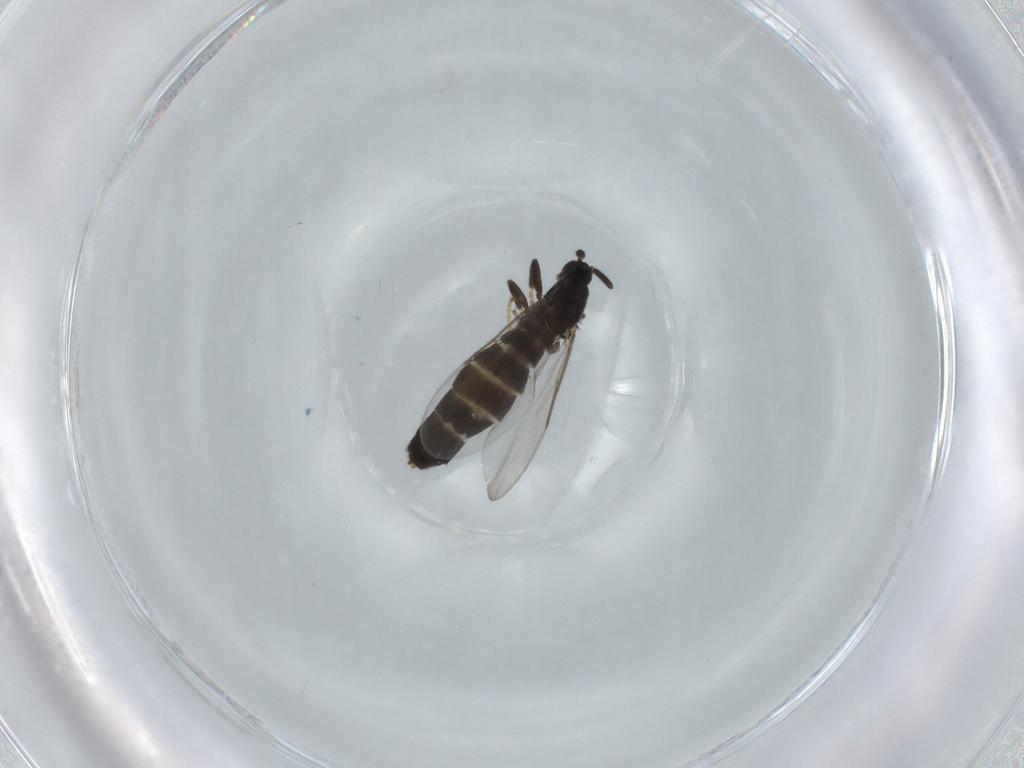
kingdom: Animalia
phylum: Arthropoda
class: Insecta
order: Diptera
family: Scatopsidae
